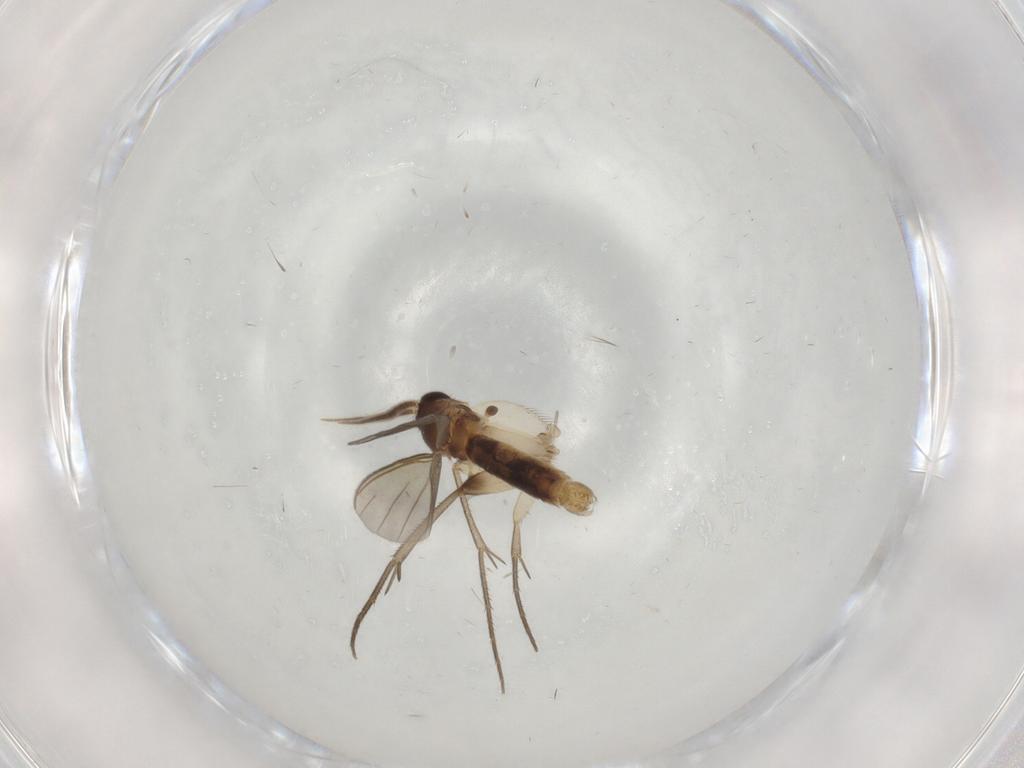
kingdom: Animalia
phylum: Arthropoda
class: Insecta
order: Diptera
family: Mycetophilidae
